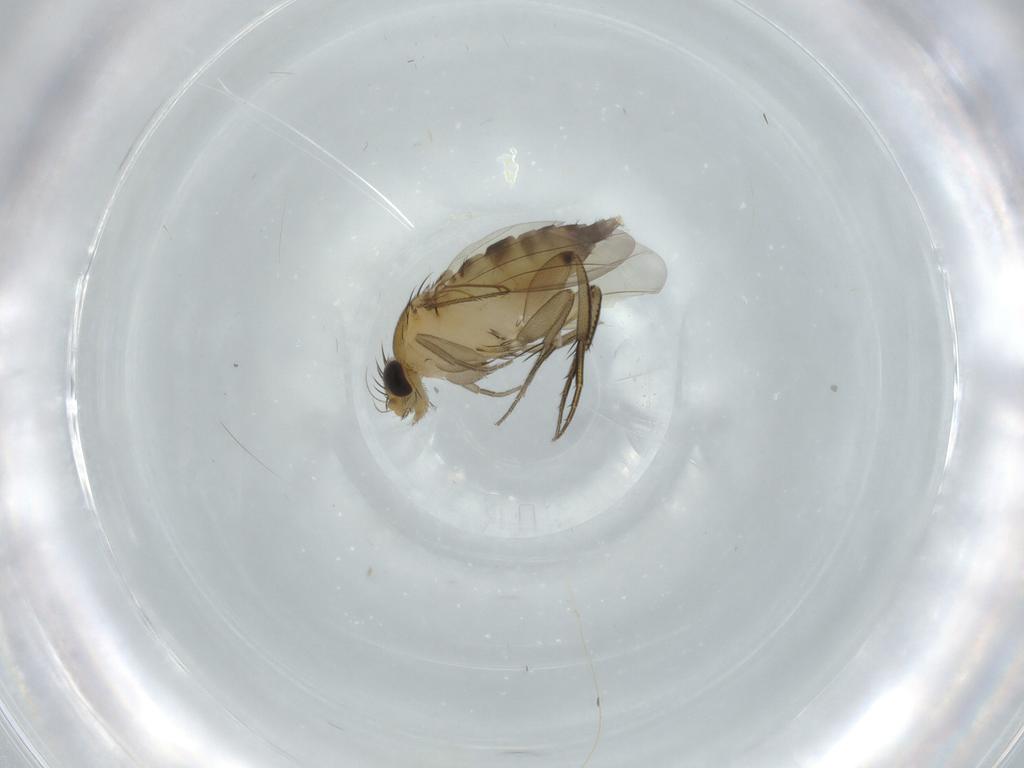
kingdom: Animalia
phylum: Arthropoda
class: Insecta
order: Diptera
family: Phoridae
